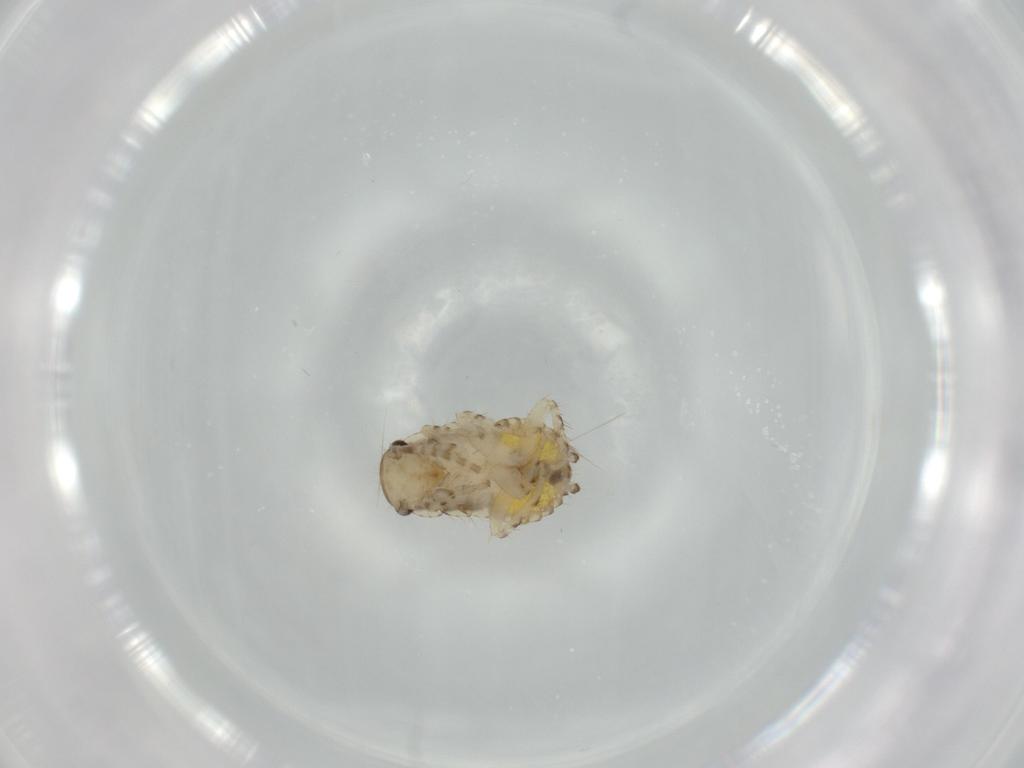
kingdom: Animalia
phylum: Arthropoda
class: Insecta
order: Blattodea
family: Ectobiidae
